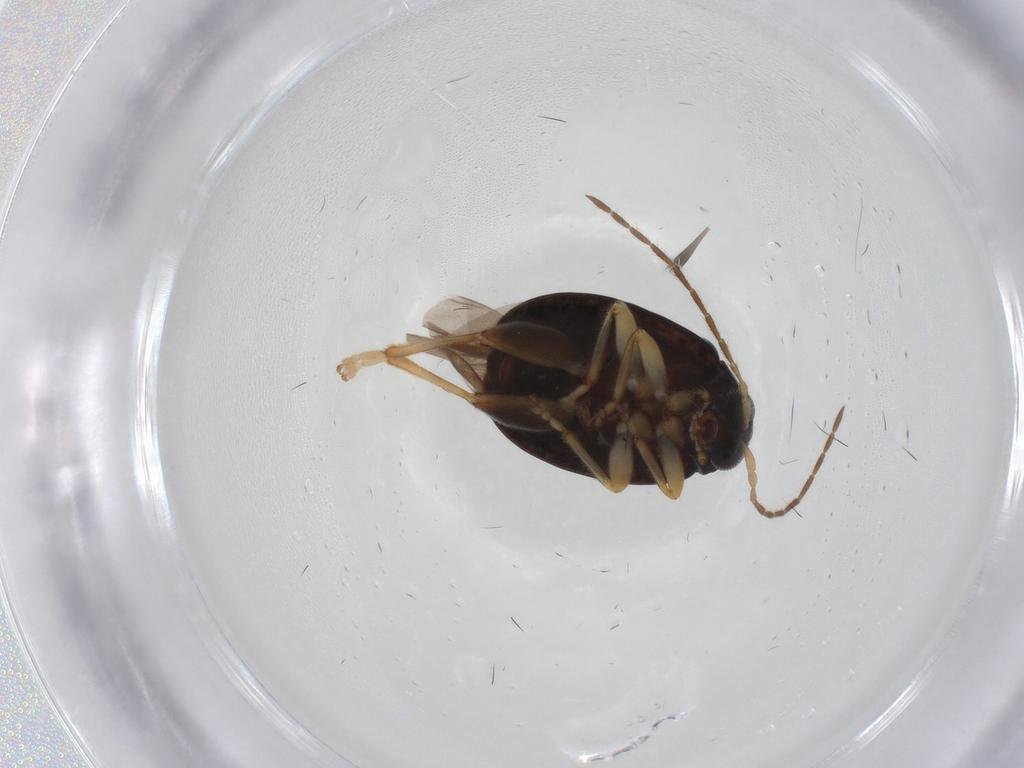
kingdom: Animalia
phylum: Arthropoda
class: Insecta
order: Coleoptera
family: Chrysomelidae
